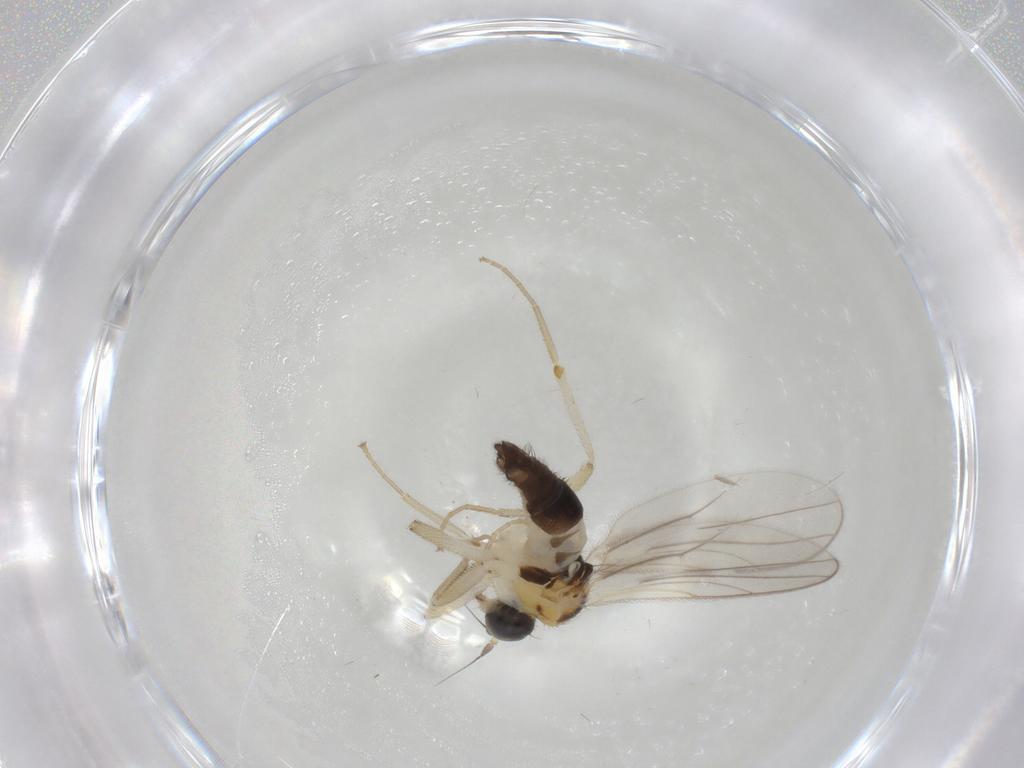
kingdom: Animalia
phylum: Arthropoda
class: Insecta
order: Diptera
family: Hybotidae
